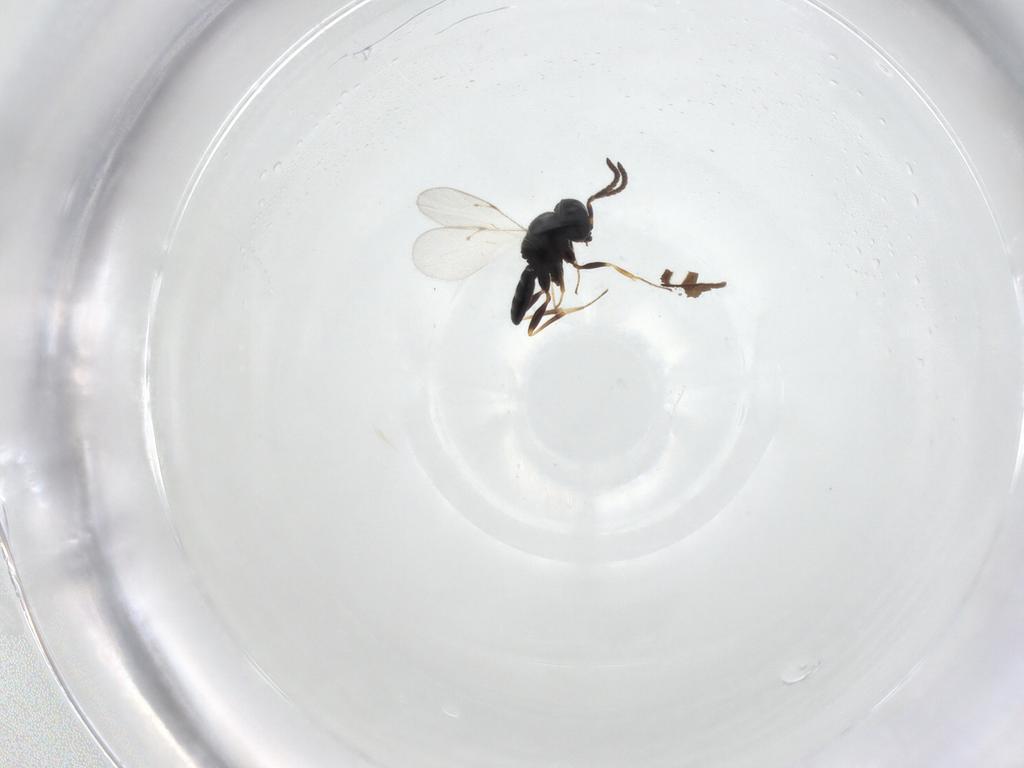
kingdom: Animalia
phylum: Arthropoda
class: Insecta
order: Hymenoptera
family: Scelionidae
